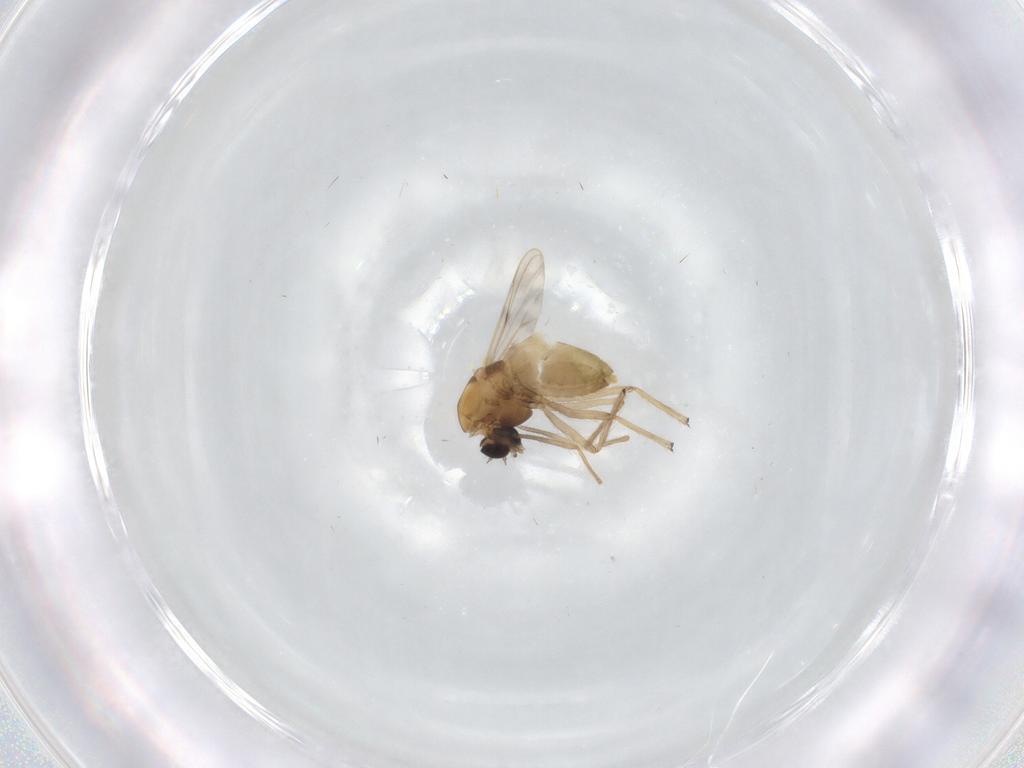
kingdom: Animalia
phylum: Arthropoda
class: Insecta
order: Diptera
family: Chironomidae
